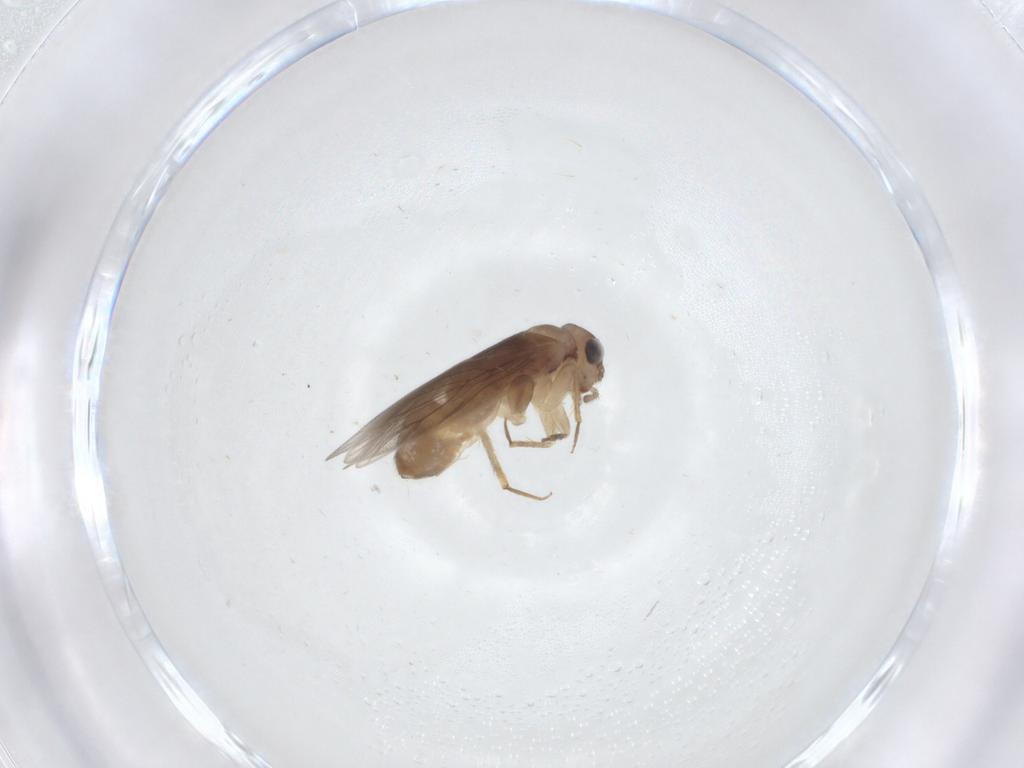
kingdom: Animalia
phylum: Arthropoda
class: Insecta
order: Psocodea
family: Lepidopsocidae
